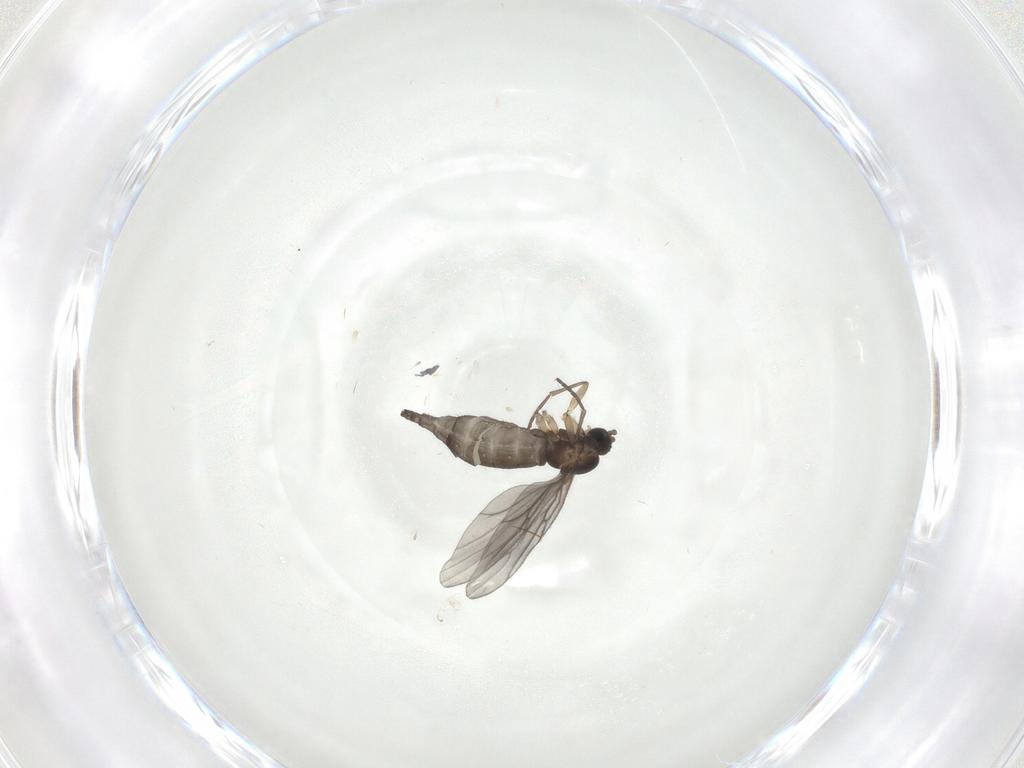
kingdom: Animalia
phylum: Arthropoda
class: Insecta
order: Diptera
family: Sciaridae
